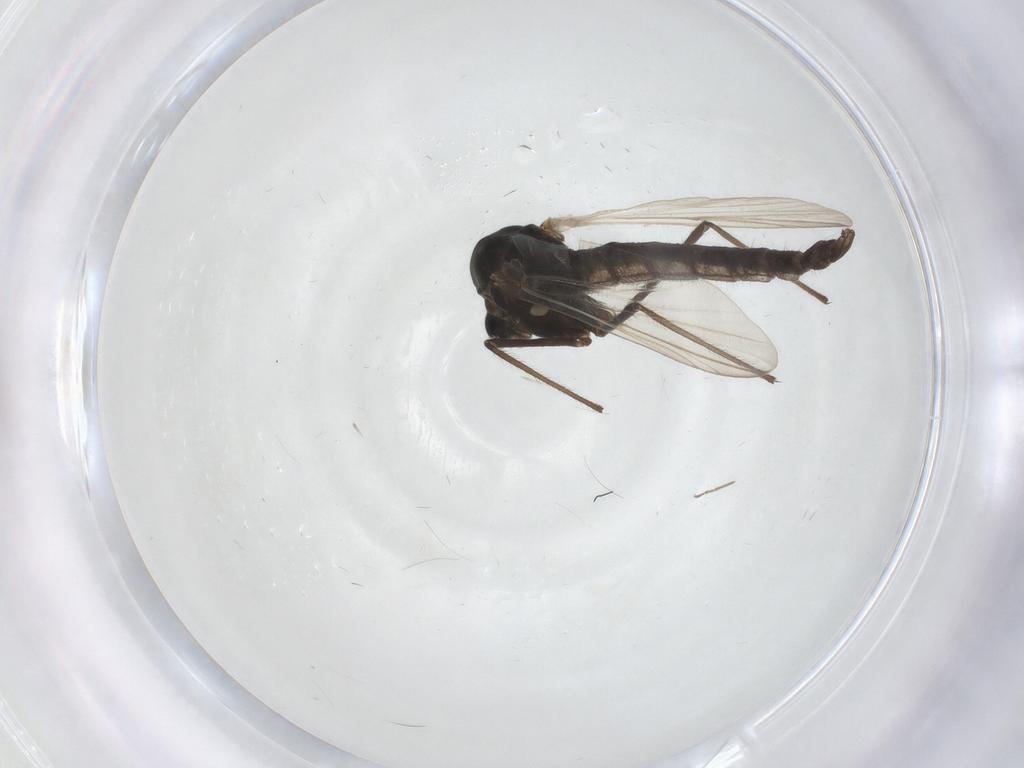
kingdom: Animalia
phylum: Arthropoda
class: Insecta
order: Diptera
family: Chironomidae
